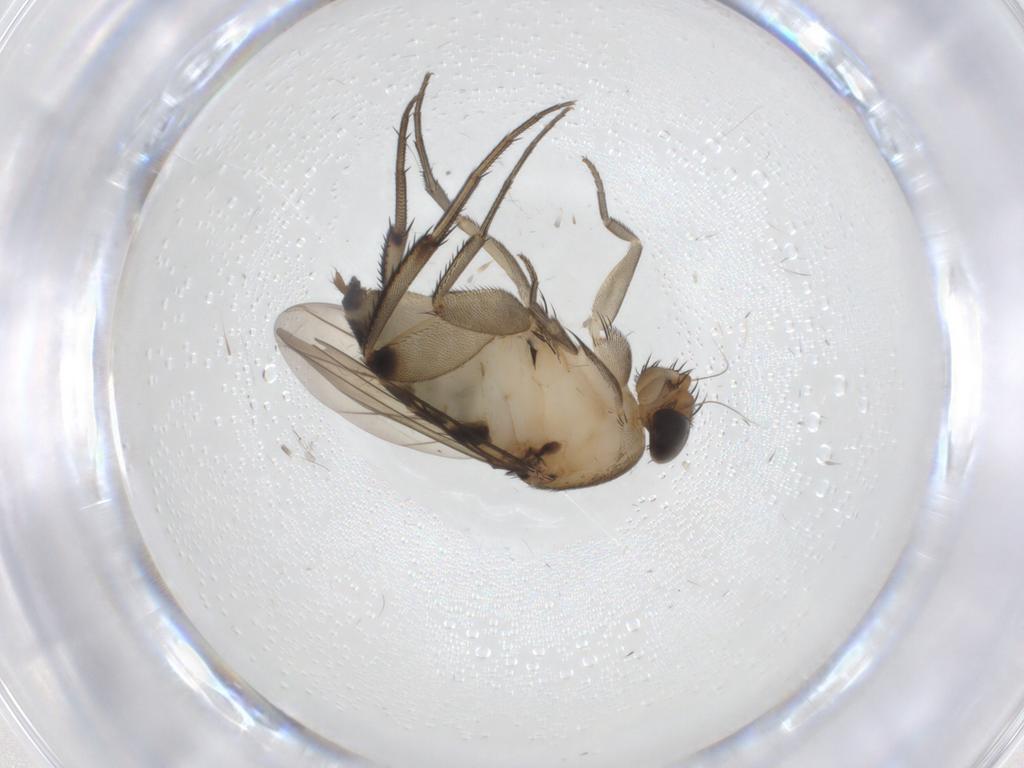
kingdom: Animalia
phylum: Arthropoda
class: Insecta
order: Diptera
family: Phoridae
